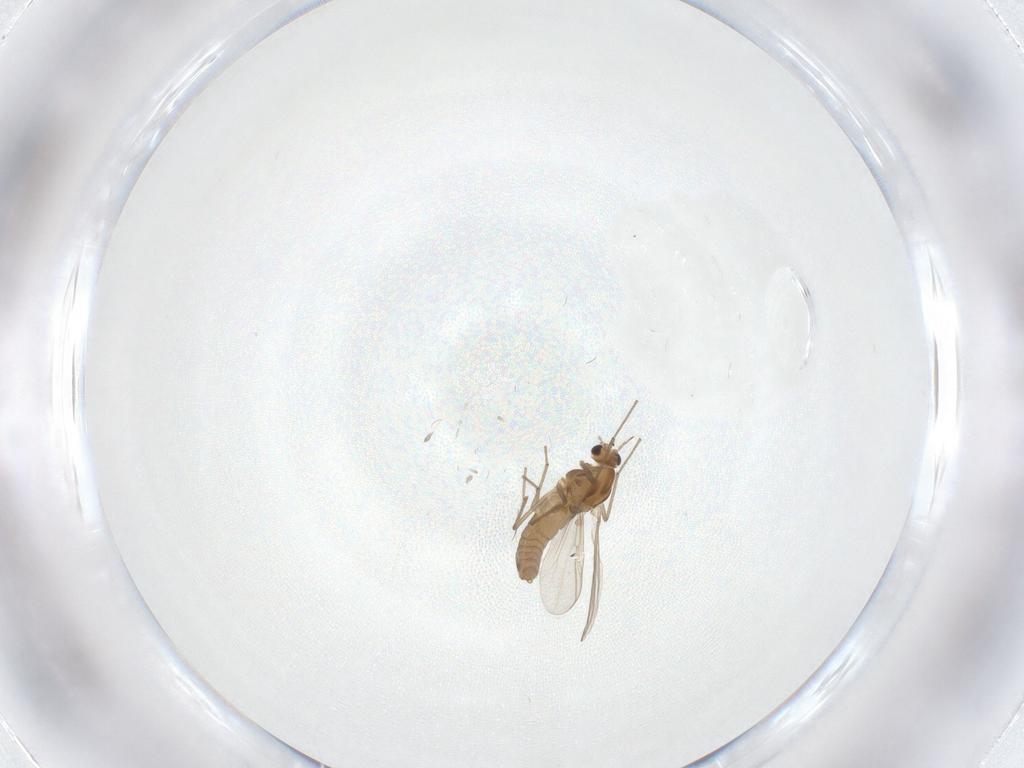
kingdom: Animalia
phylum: Arthropoda
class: Insecta
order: Diptera
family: Chironomidae
